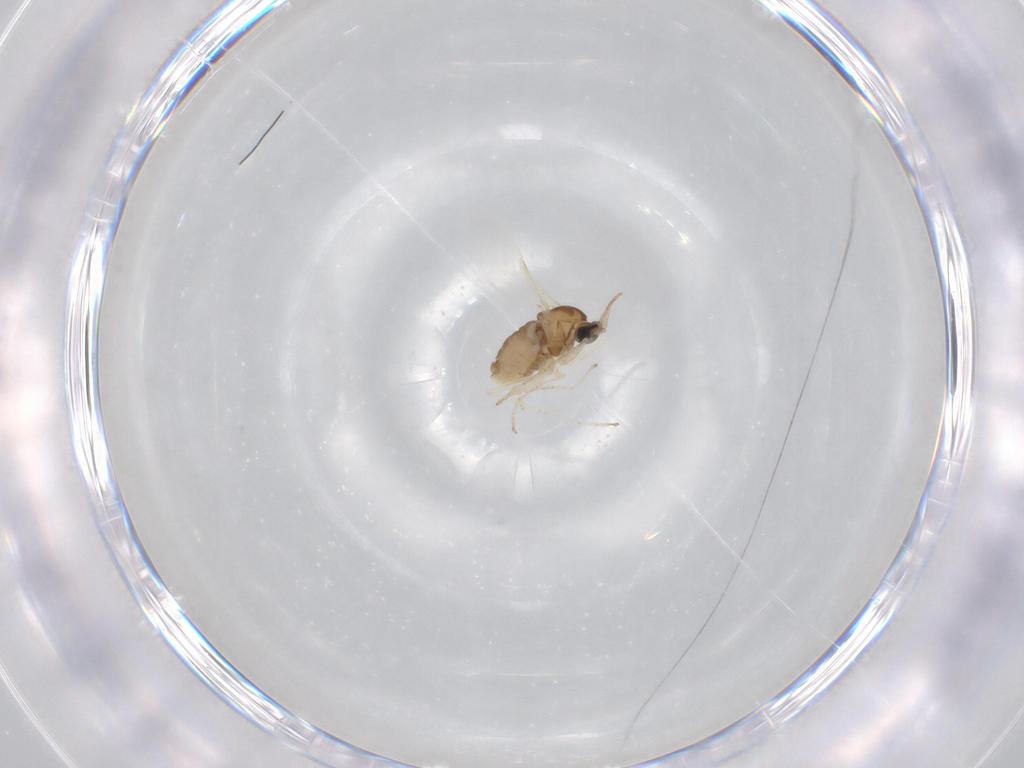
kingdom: Animalia
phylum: Arthropoda
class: Insecta
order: Diptera
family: Cecidomyiidae
